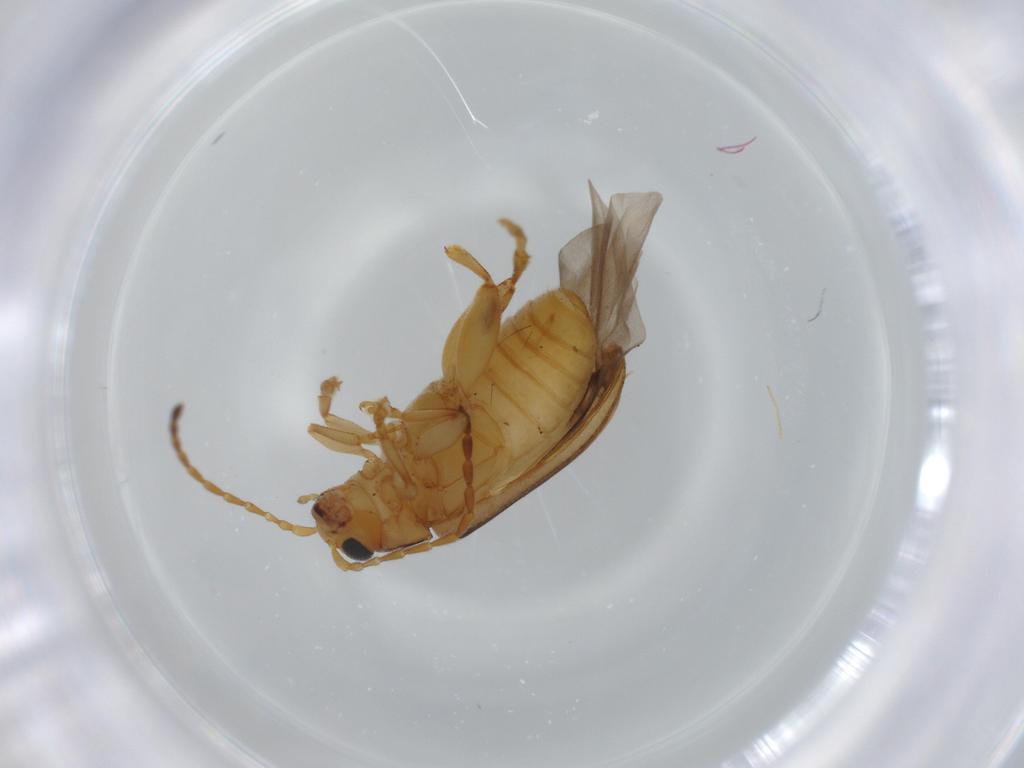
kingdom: Animalia
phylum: Arthropoda
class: Insecta
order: Coleoptera
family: Chrysomelidae
